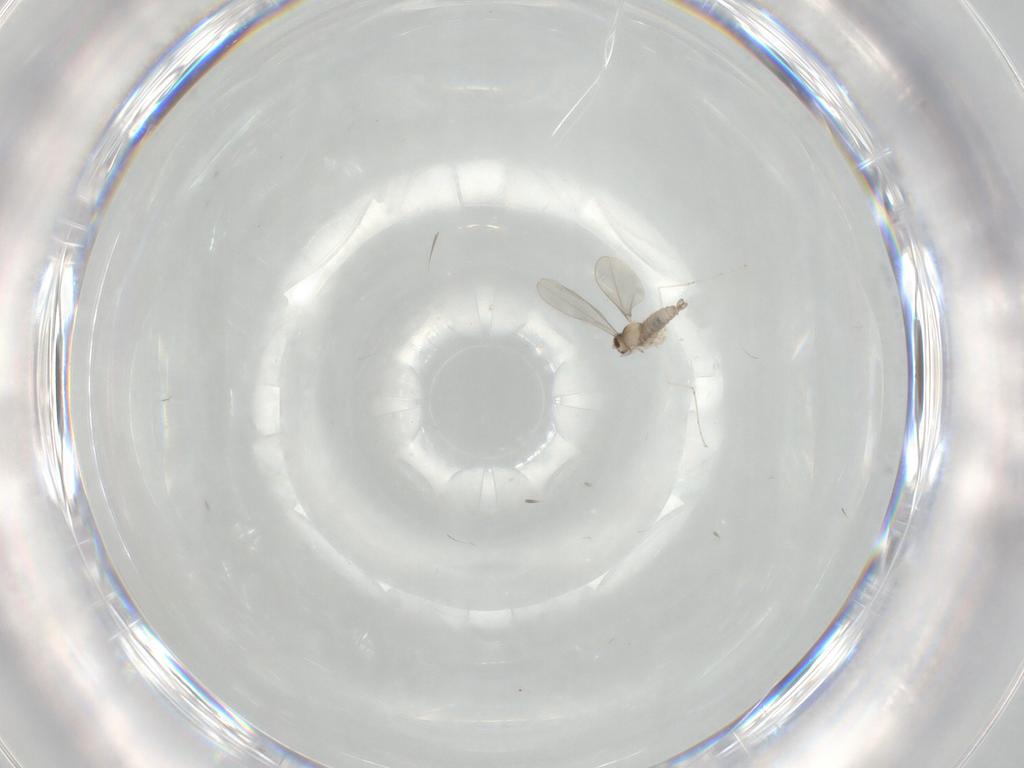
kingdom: Animalia
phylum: Arthropoda
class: Insecta
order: Diptera
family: Cecidomyiidae
